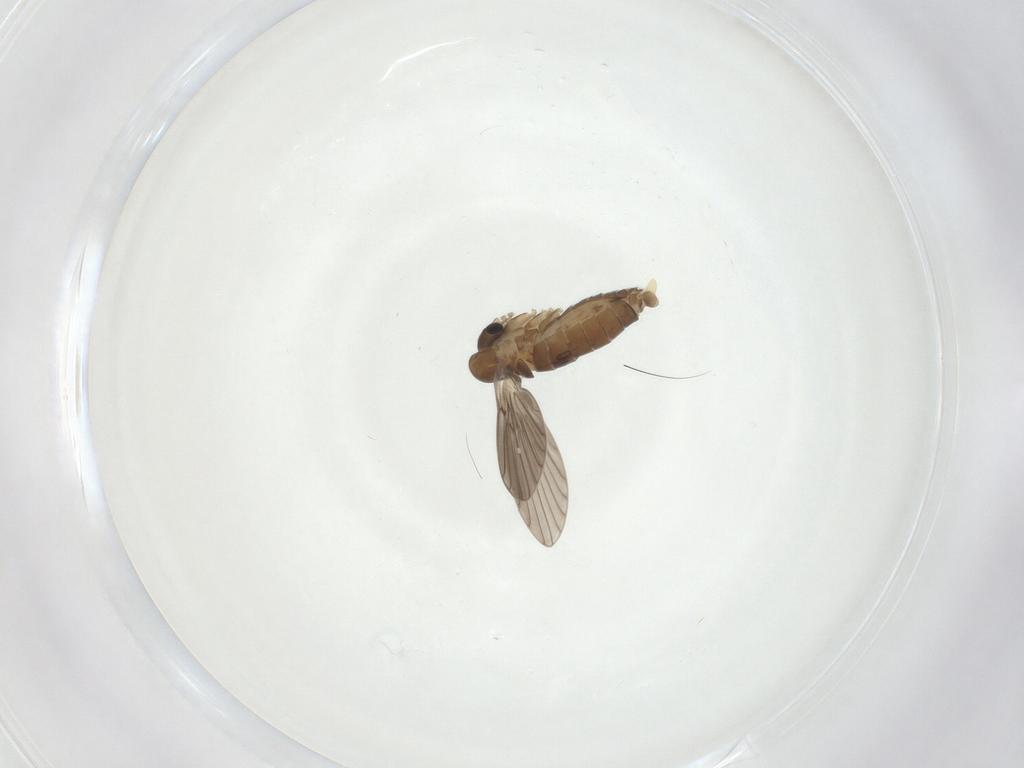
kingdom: Animalia
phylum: Arthropoda
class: Insecta
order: Diptera
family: Psychodidae
